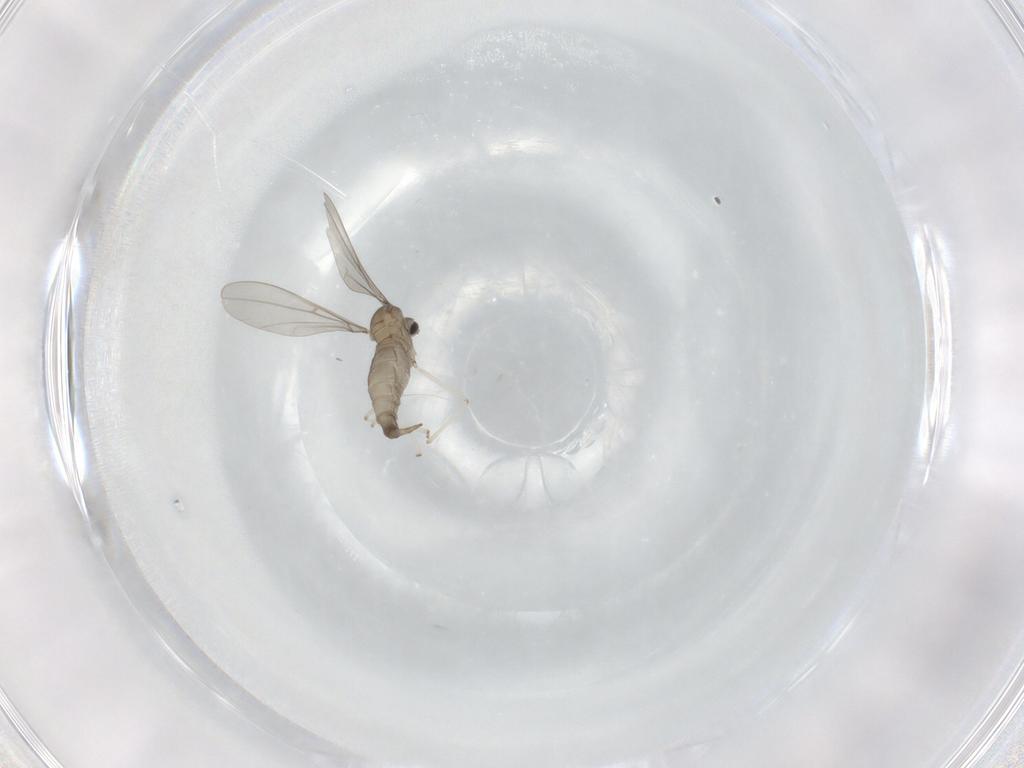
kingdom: Animalia
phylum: Arthropoda
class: Insecta
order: Diptera
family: Cecidomyiidae
